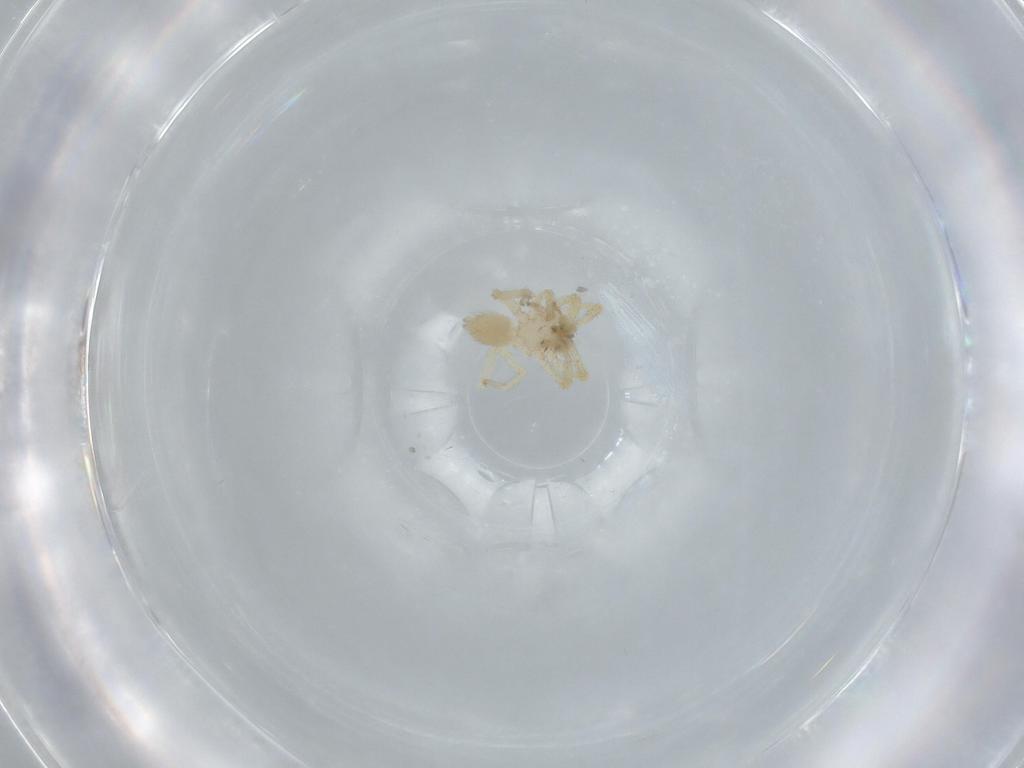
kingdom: Animalia
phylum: Arthropoda
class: Arachnida
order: Araneae
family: Oonopidae
